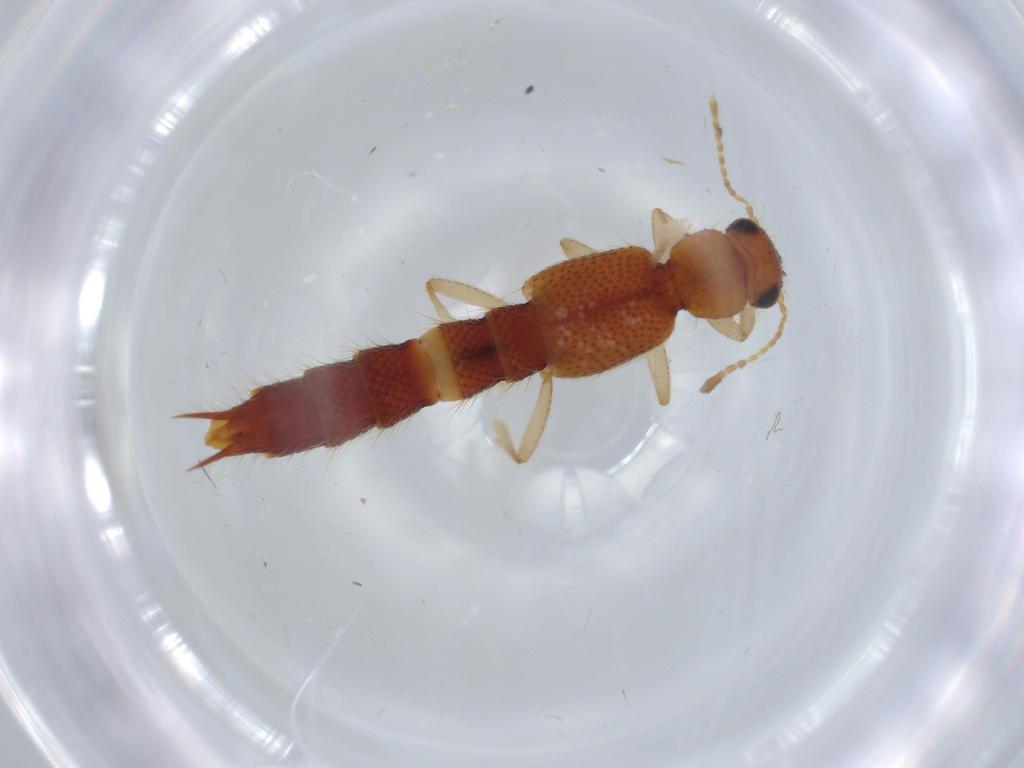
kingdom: Animalia
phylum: Arthropoda
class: Insecta
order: Coleoptera
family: Staphylinidae
